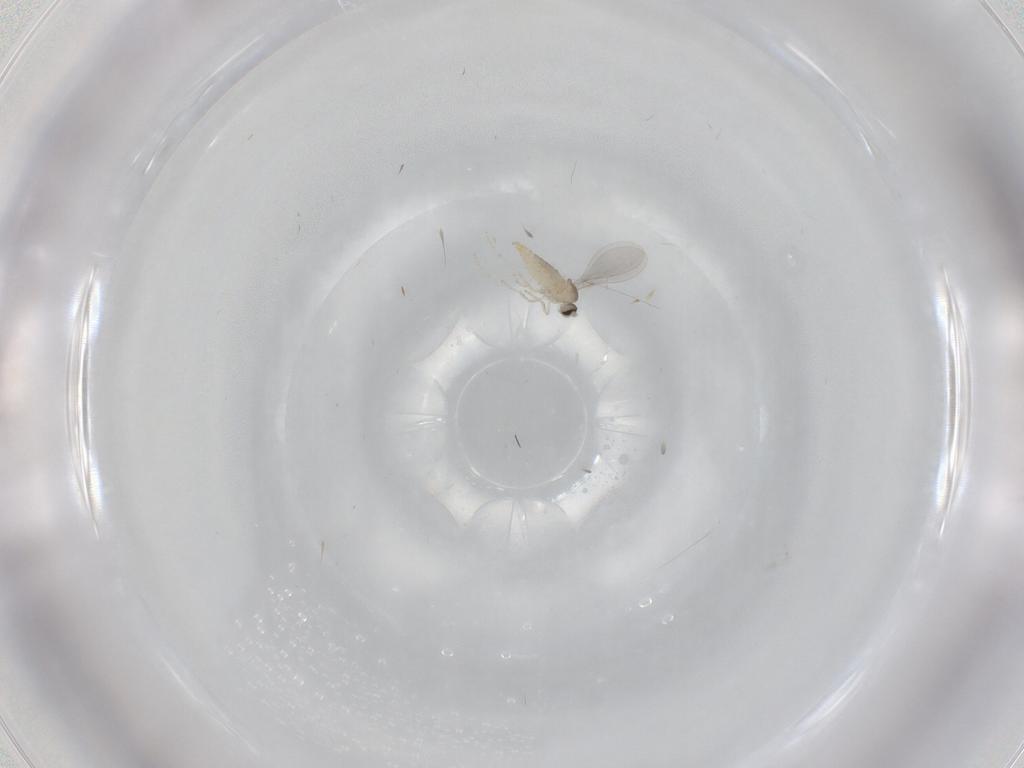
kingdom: Animalia
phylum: Arthropoda
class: Insecta
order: Diptera
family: Cecidomyiidae
